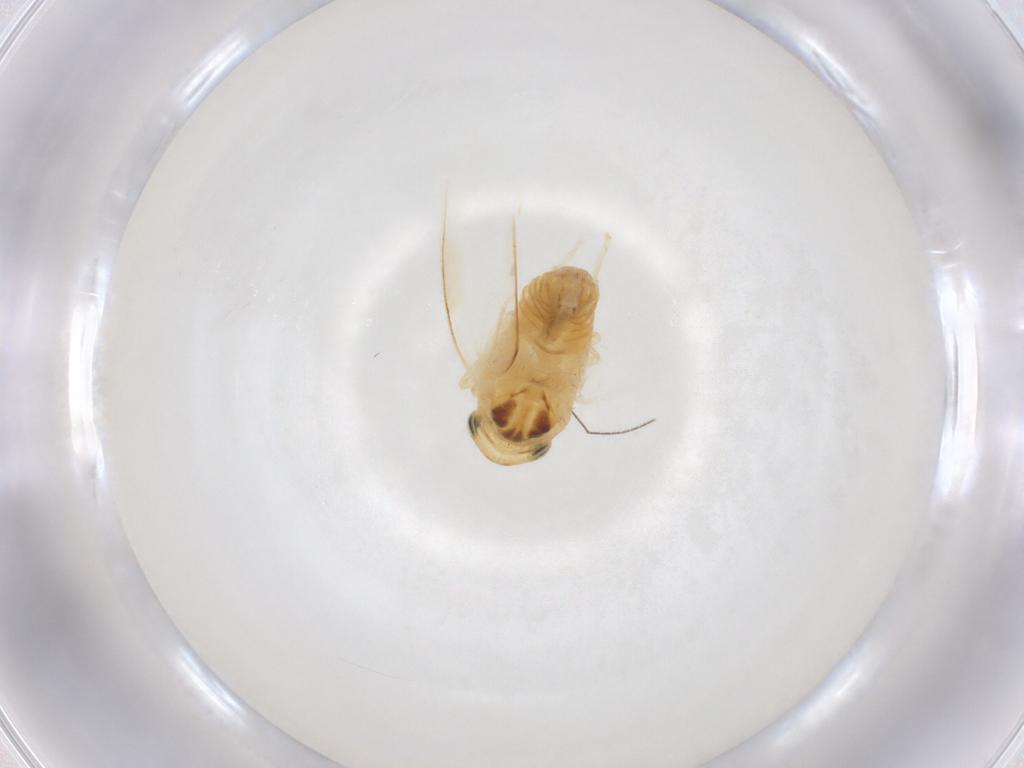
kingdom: Animalia
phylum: Arthropoda
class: Insecta
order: Hemiptera
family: Cicadellidae
